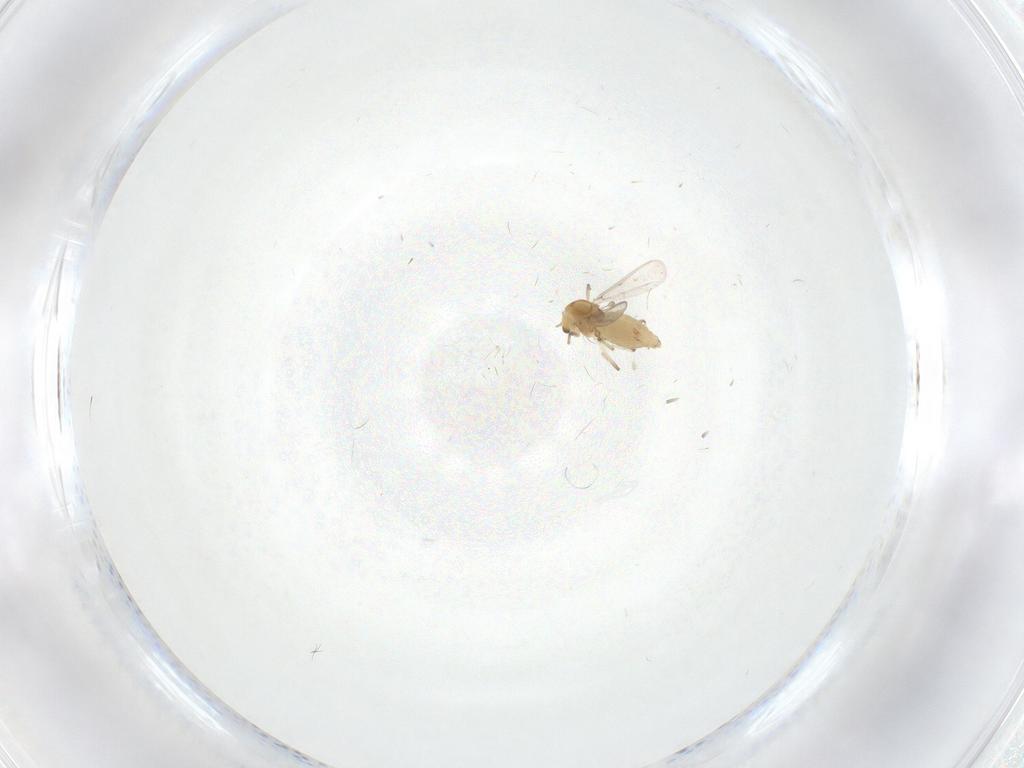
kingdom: Animalia
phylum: Arthropoda
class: Insecta
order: Diptera
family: Chironomidae
